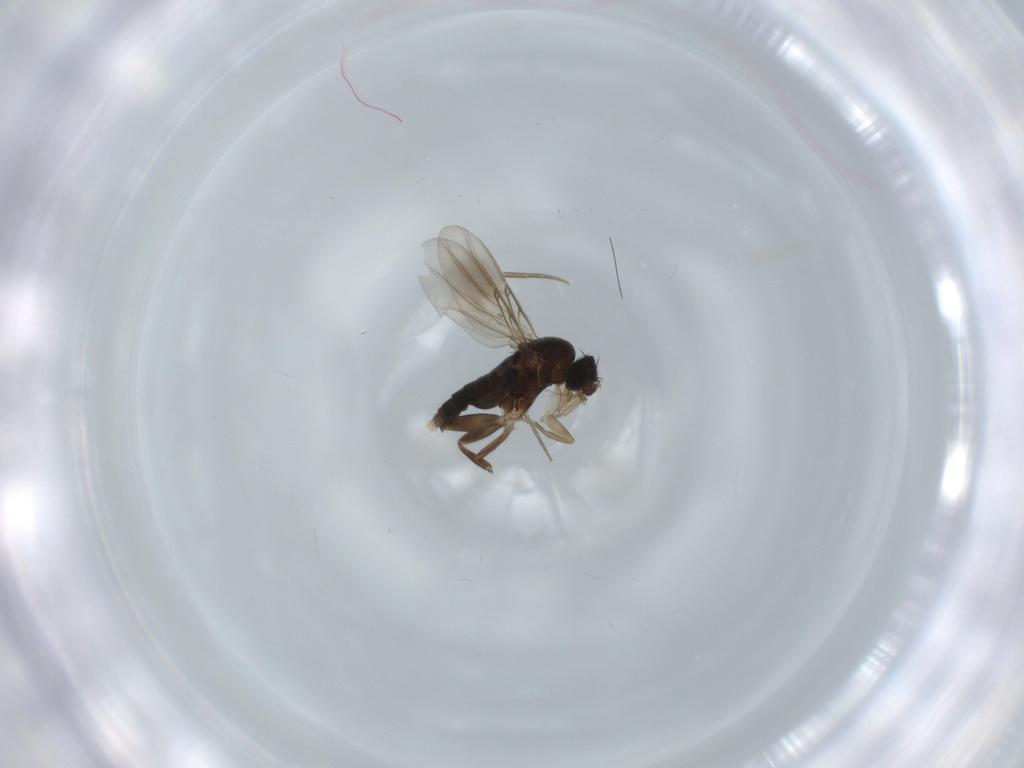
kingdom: Animalia
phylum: Arthropoda
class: Insecta
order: Diptera
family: Phoridae
